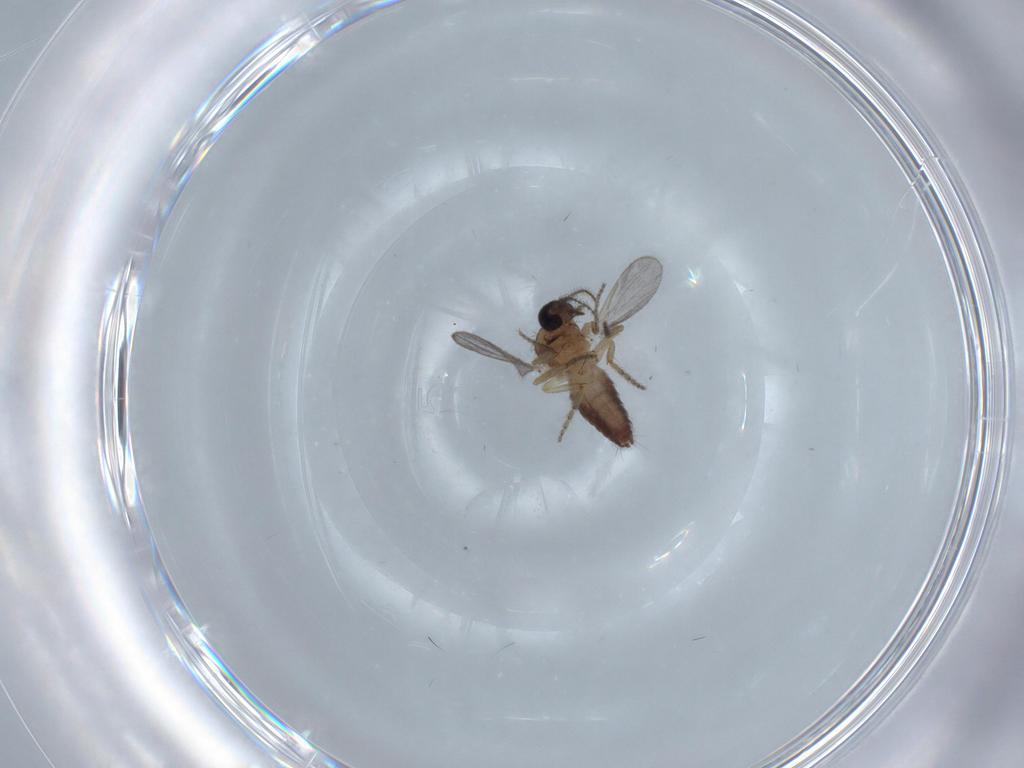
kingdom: Animalia
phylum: Arthropoda
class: Insecta
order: Diptera
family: Ceratopogonidae
